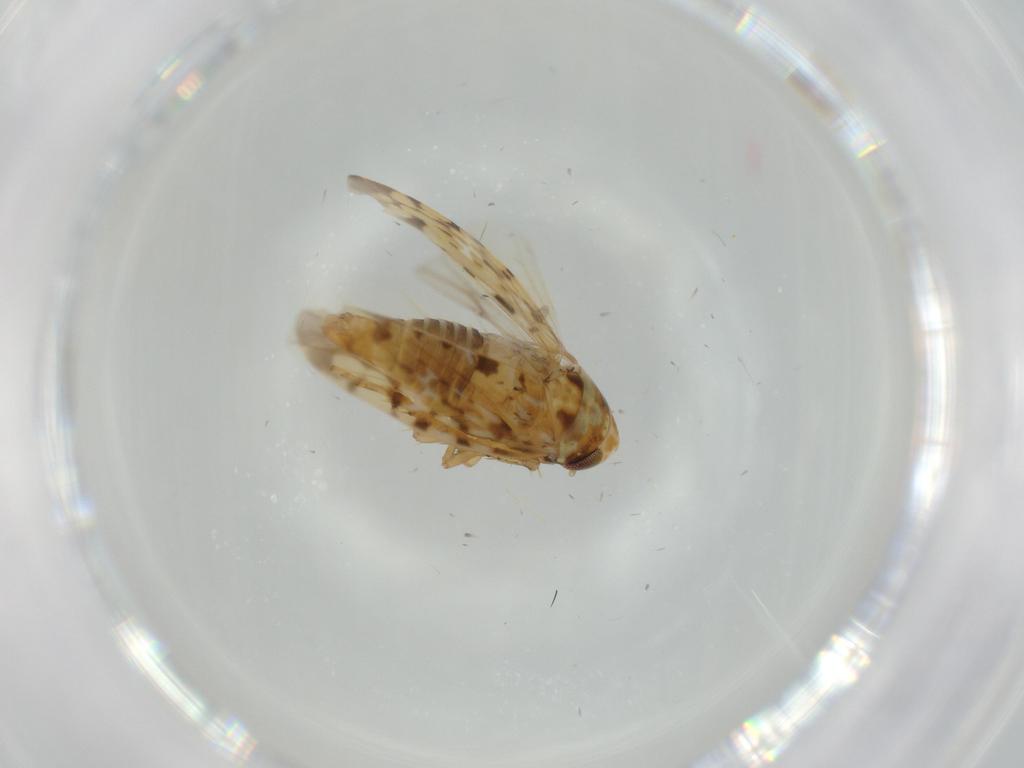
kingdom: Animalia
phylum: Arthropoda
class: Insecta
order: Hemiptera
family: Cicadellidae
